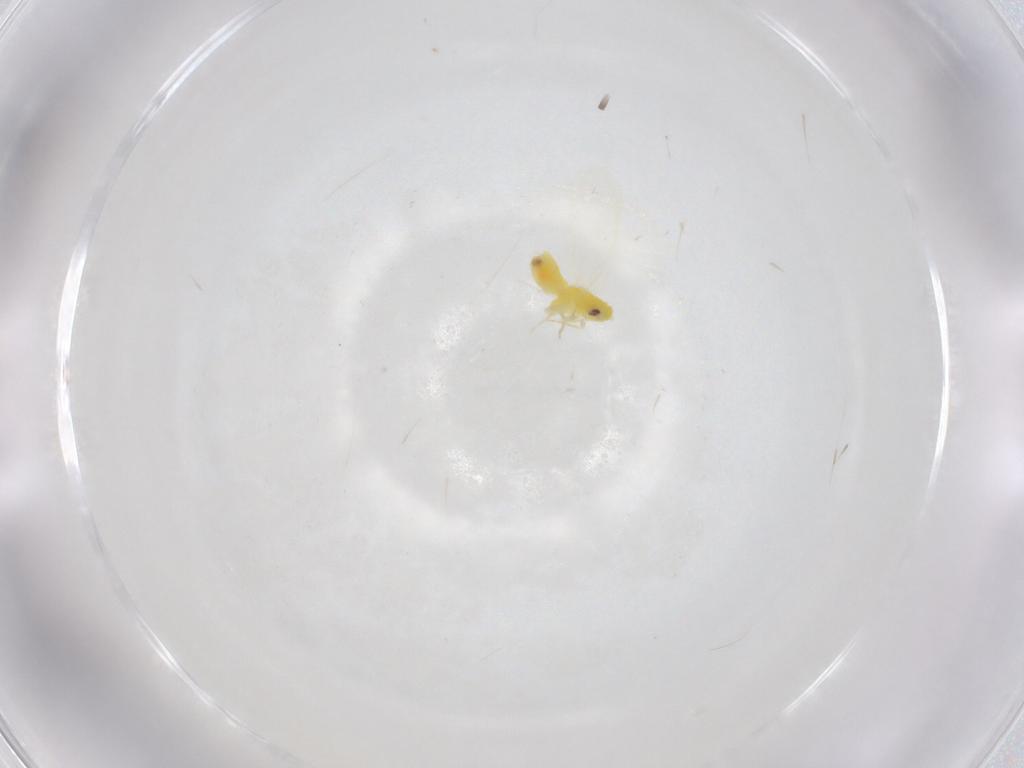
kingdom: Animalia
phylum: Arthropoda
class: Insecta
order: Hemiptera
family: Aleyrodidae
